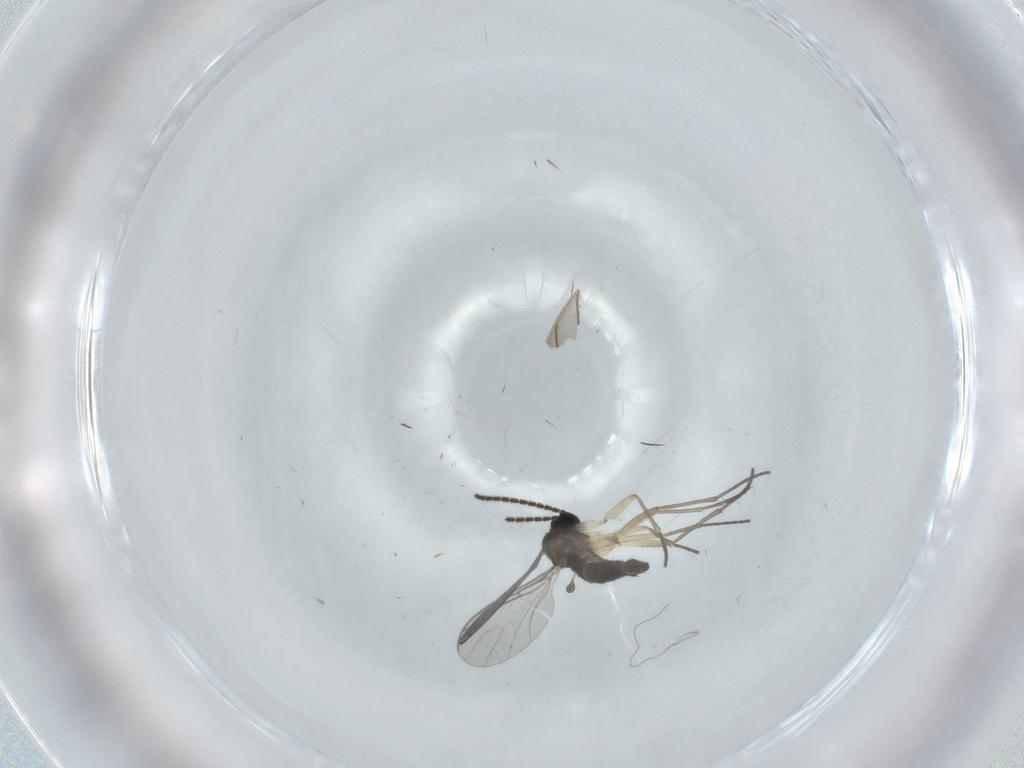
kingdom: Animalia
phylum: Arthropoda
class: Insecta
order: Diptera
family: Sciaridae
